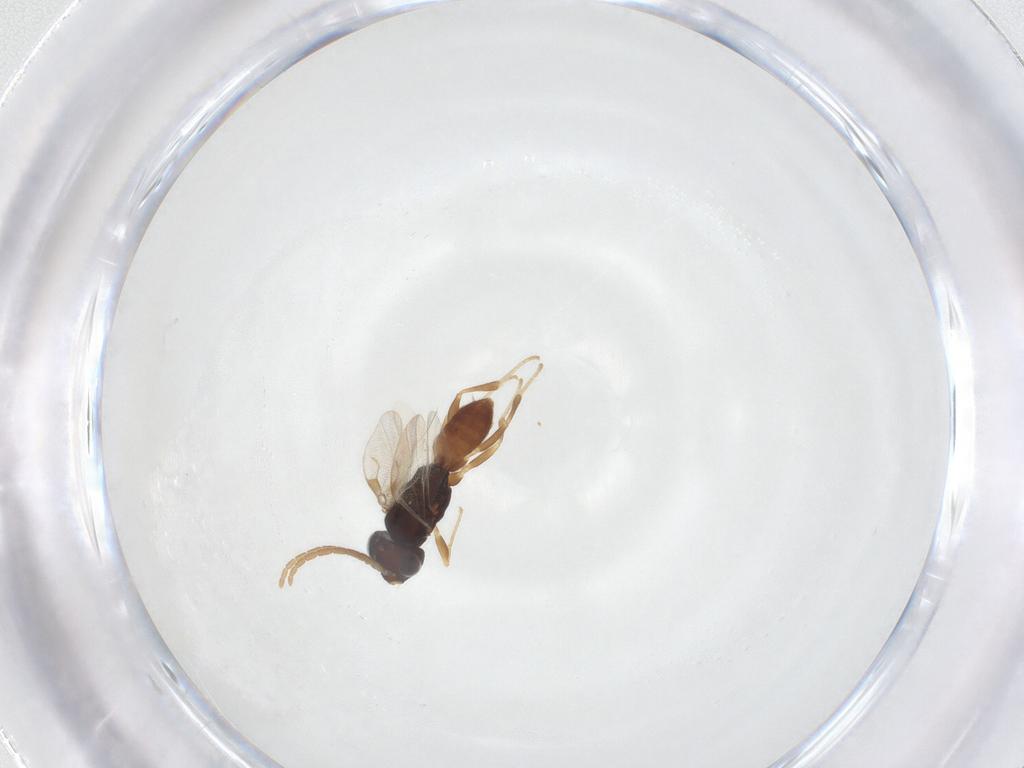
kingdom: Animalia
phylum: Arthropoda
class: Insecta
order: Hymenoptera
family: Dryinidae
